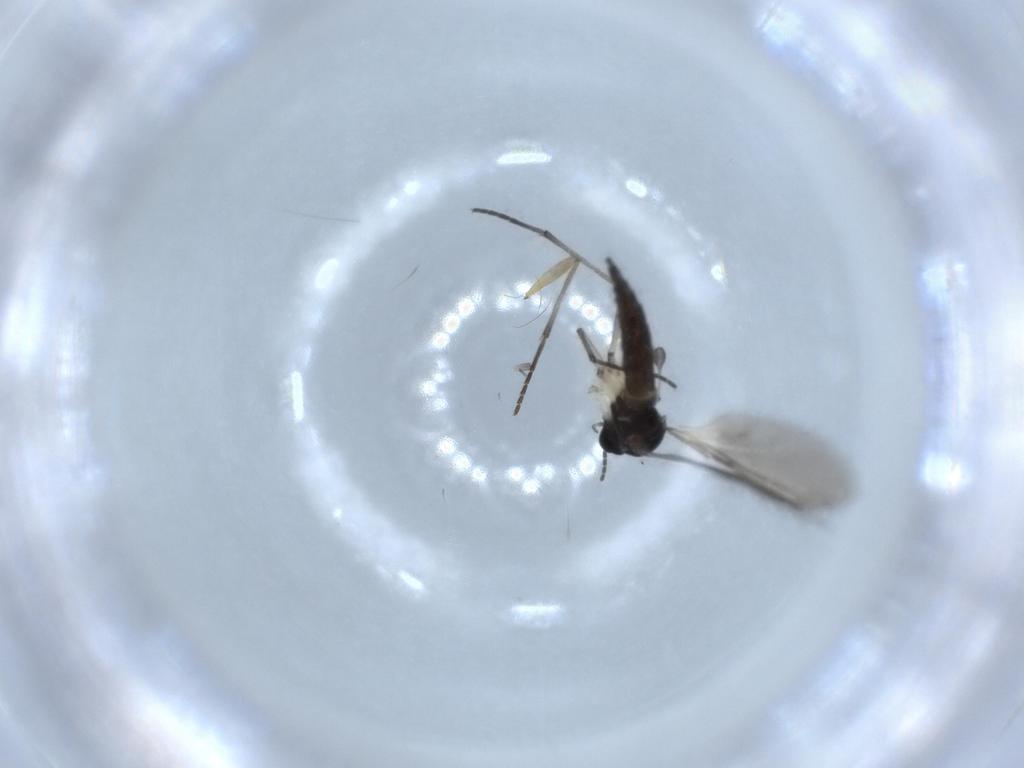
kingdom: Animalia
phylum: Arthropoda
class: Insecta
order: Diptera
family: Sciaridae
